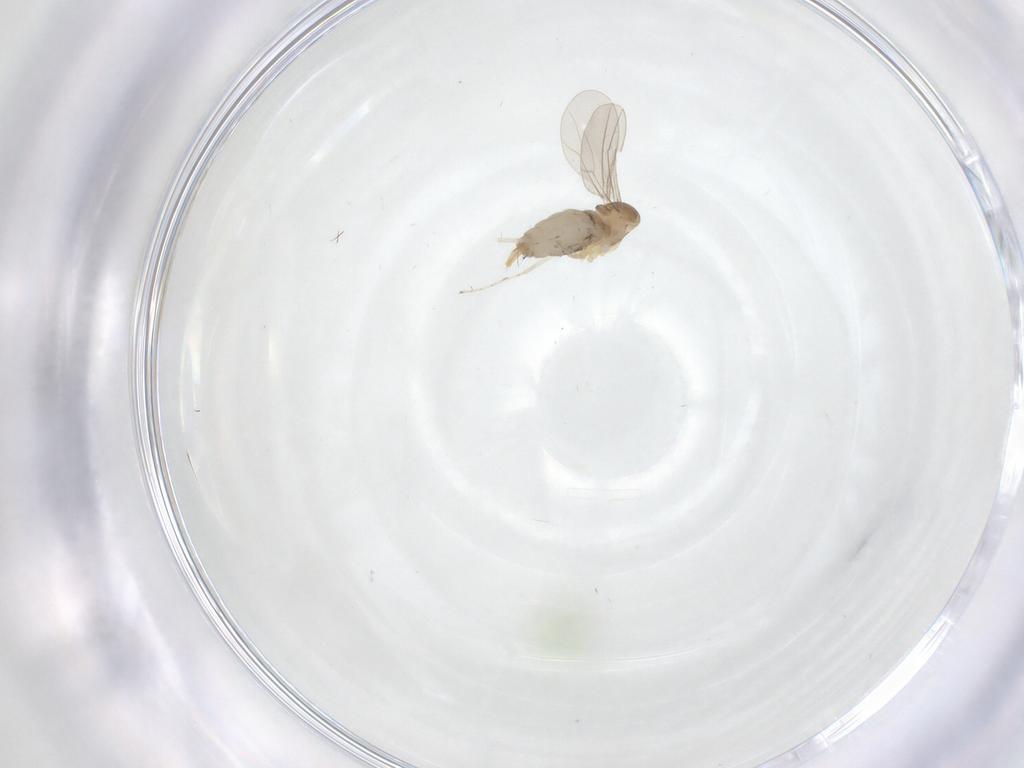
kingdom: Animalia
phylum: Arthropoda
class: Insecta
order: Diptera
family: Cecidomyiidae
